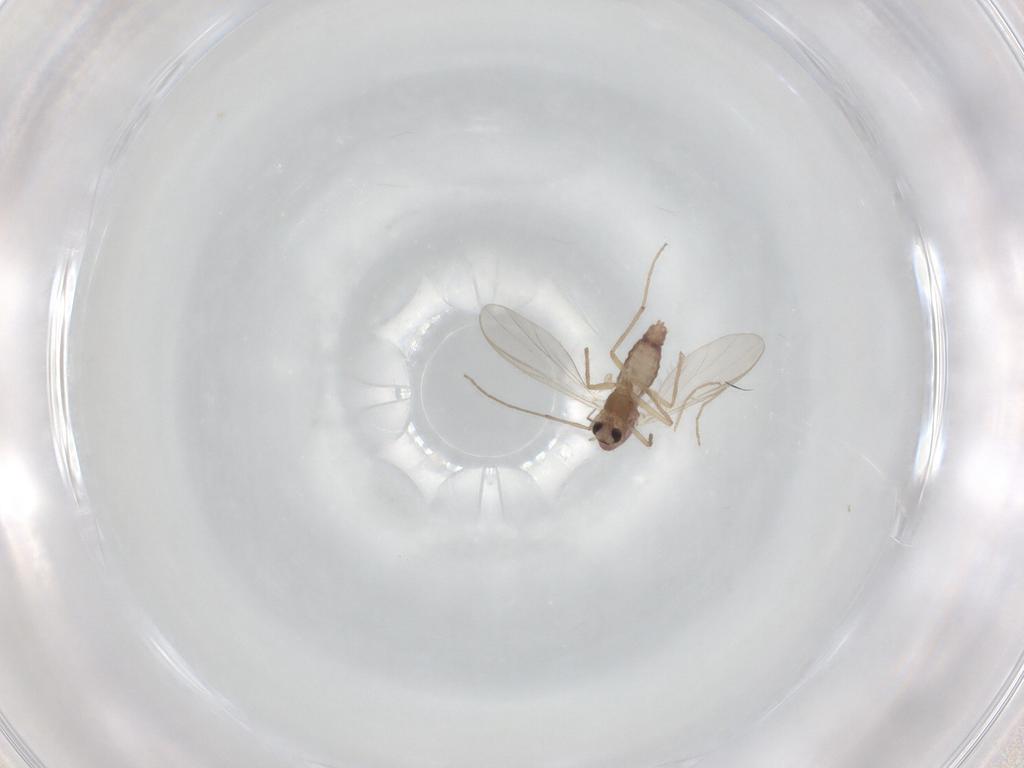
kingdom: Animalia
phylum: Arthropoda
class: Insecta
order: Diptera
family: Chironomidae
